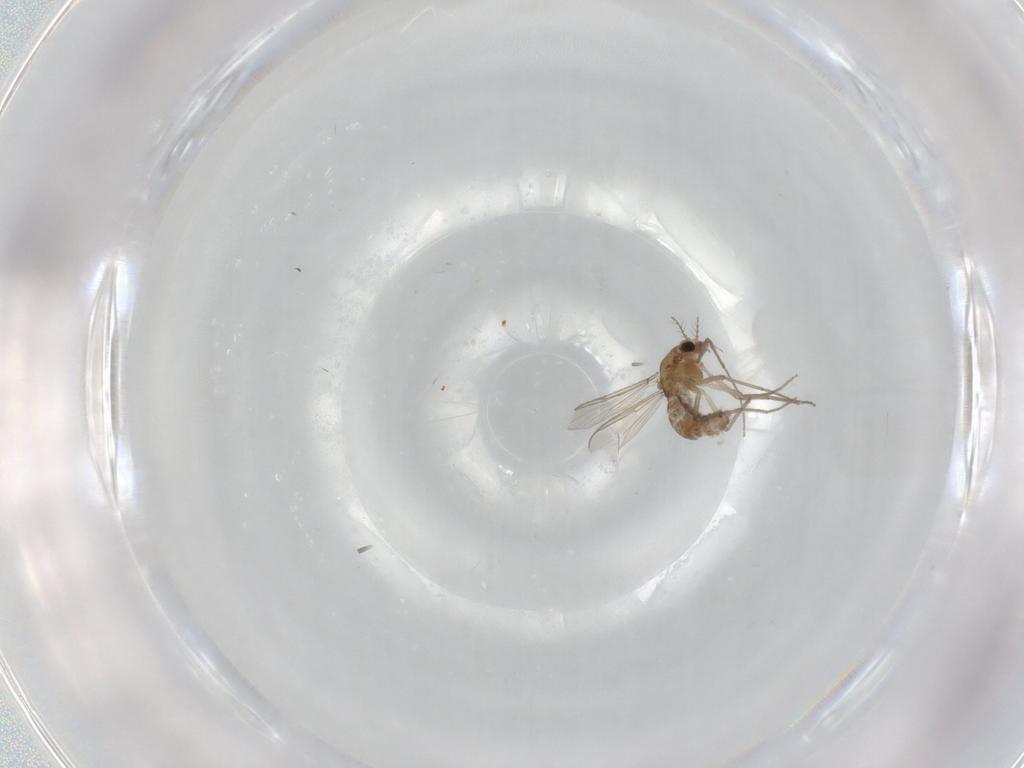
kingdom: Animalia
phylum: Arthropoda
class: Insecta
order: Diptera
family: Chironomidae
